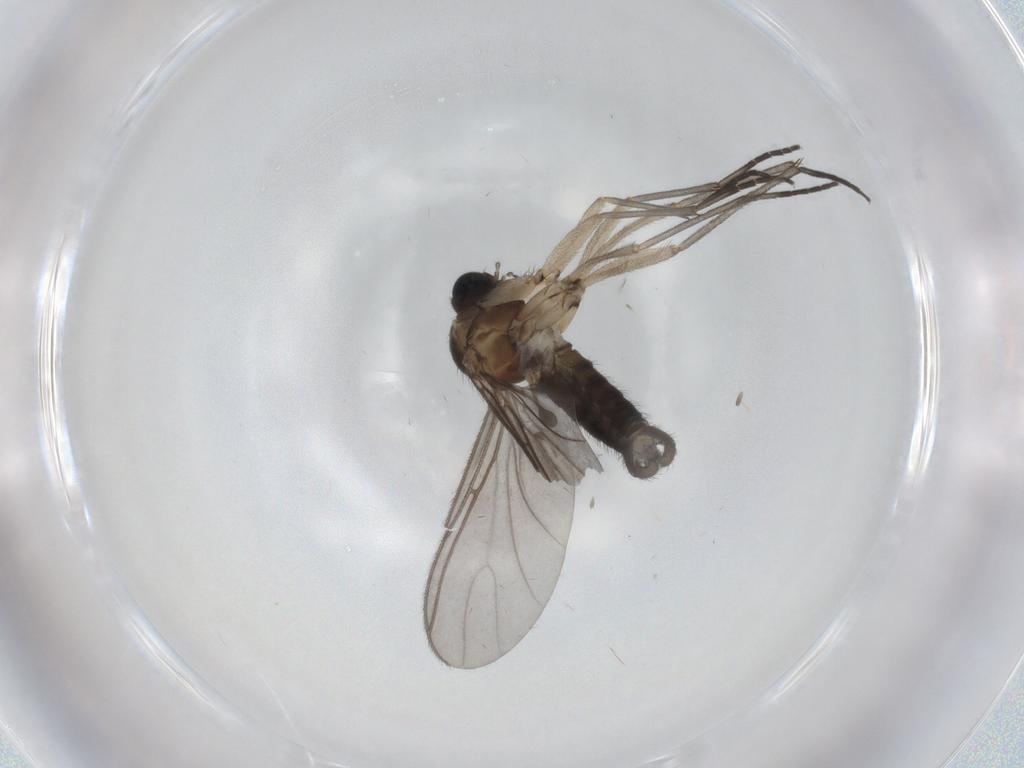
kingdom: Animalia
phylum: Arthropoda
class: Insecta
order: Diptera
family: Sciaridae
